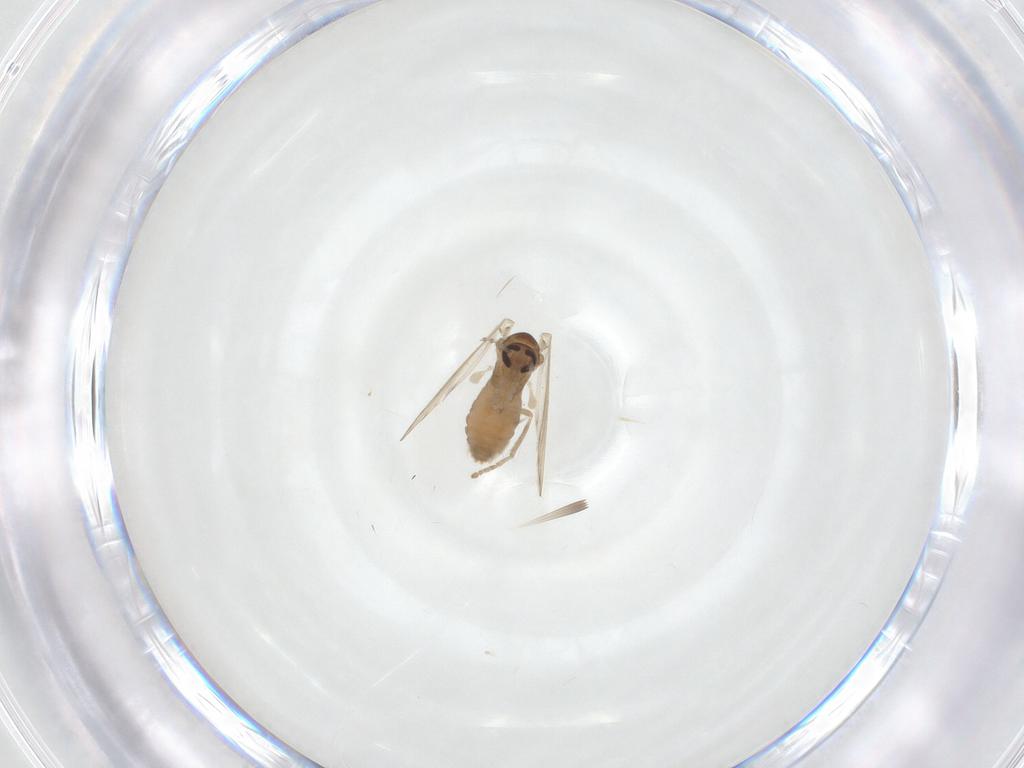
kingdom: Animalia
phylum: Arthropoda
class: Insecta
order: Diptera
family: Psychodidae
